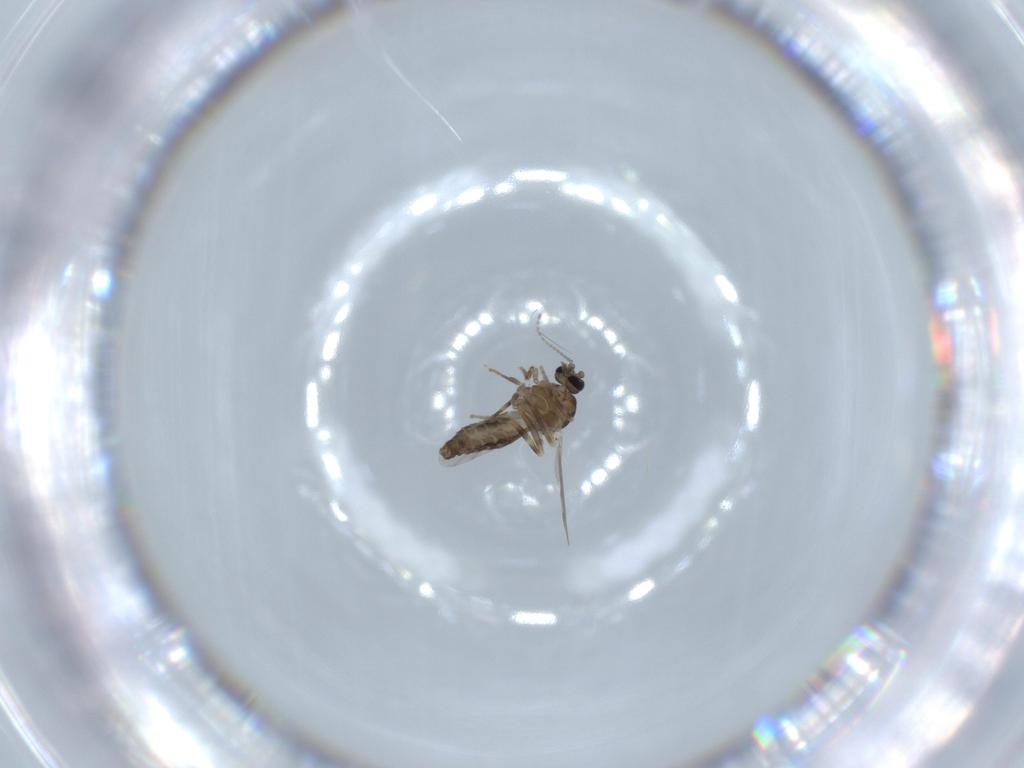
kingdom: Animalia
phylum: Arthropoda
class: Insecta
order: Diptera
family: Ceratopogonidae
